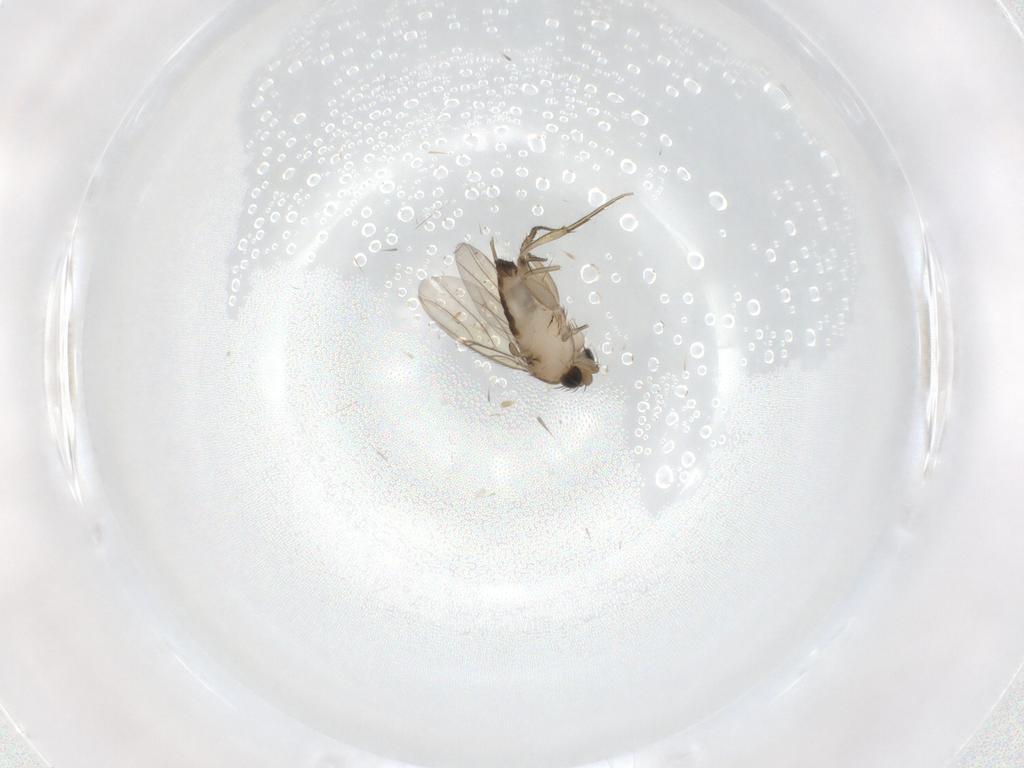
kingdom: Animalia
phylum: Arthropoda
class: Insecta
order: Diptera
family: Phoridae
